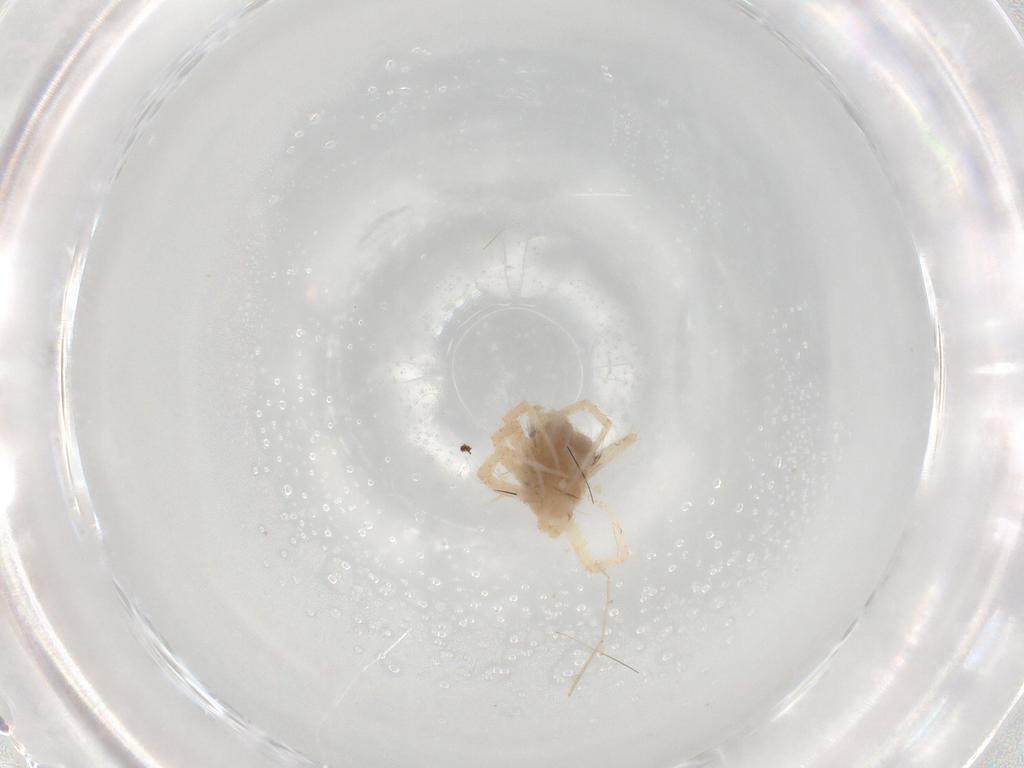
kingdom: Animalia
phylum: Arthropoda
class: Arachnida
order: Trombidiformes
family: Anystidae
